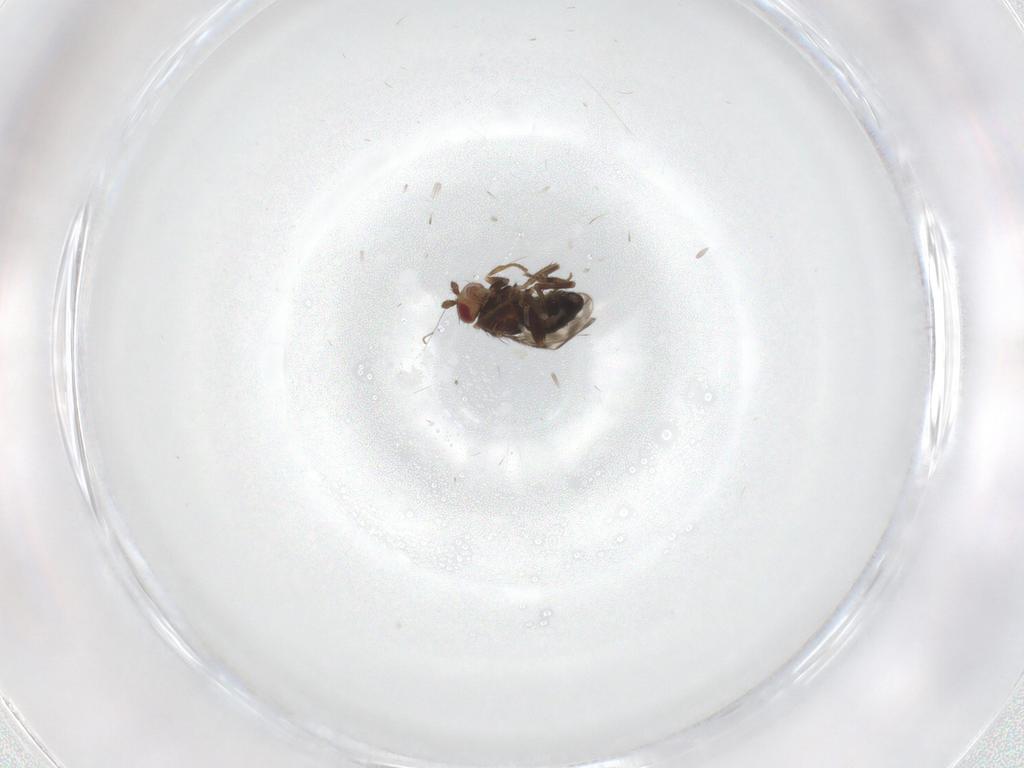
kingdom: Animalia
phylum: Arthropoda
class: Insecta
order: Diptera
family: Sphaeroceridae
